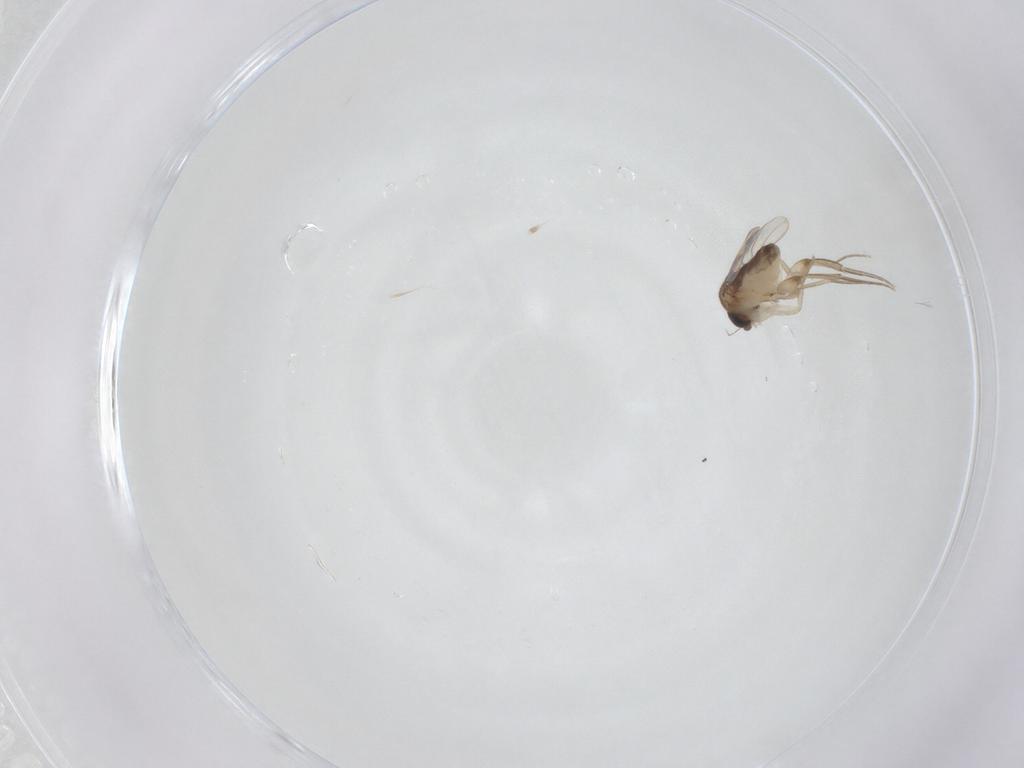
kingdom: Animalia
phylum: Arthropoda
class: Insecta
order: Diptera
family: Phoridae
